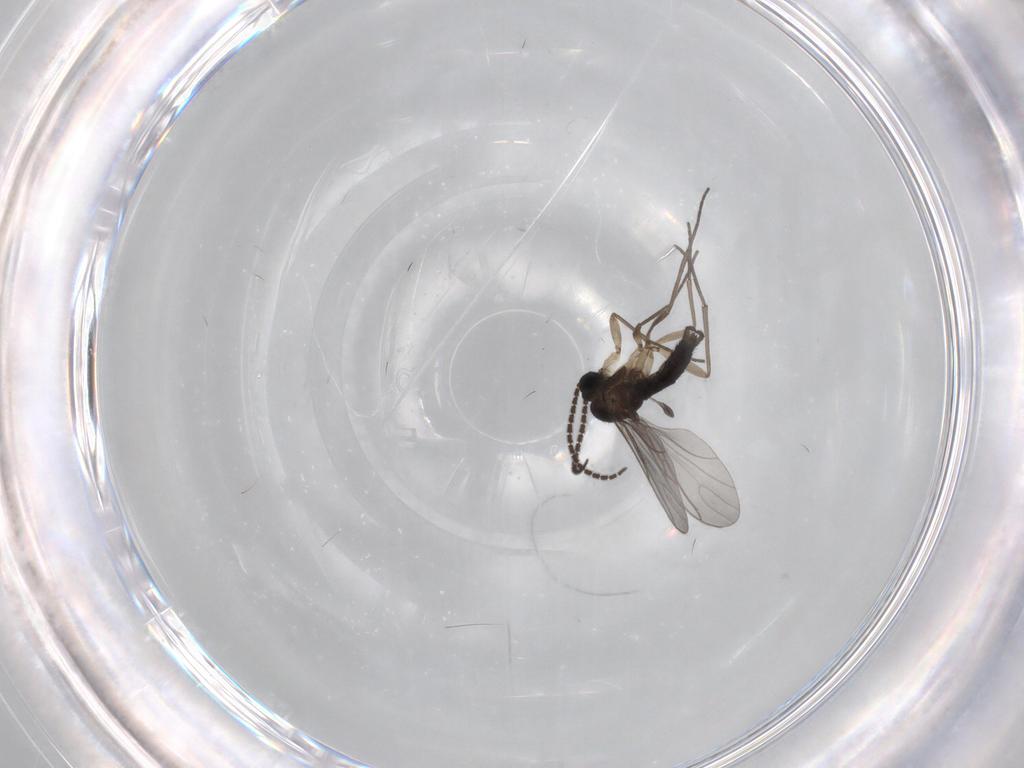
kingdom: Animalia
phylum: Arthropoda
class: Insecta
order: Diptera
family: Sciaridae
